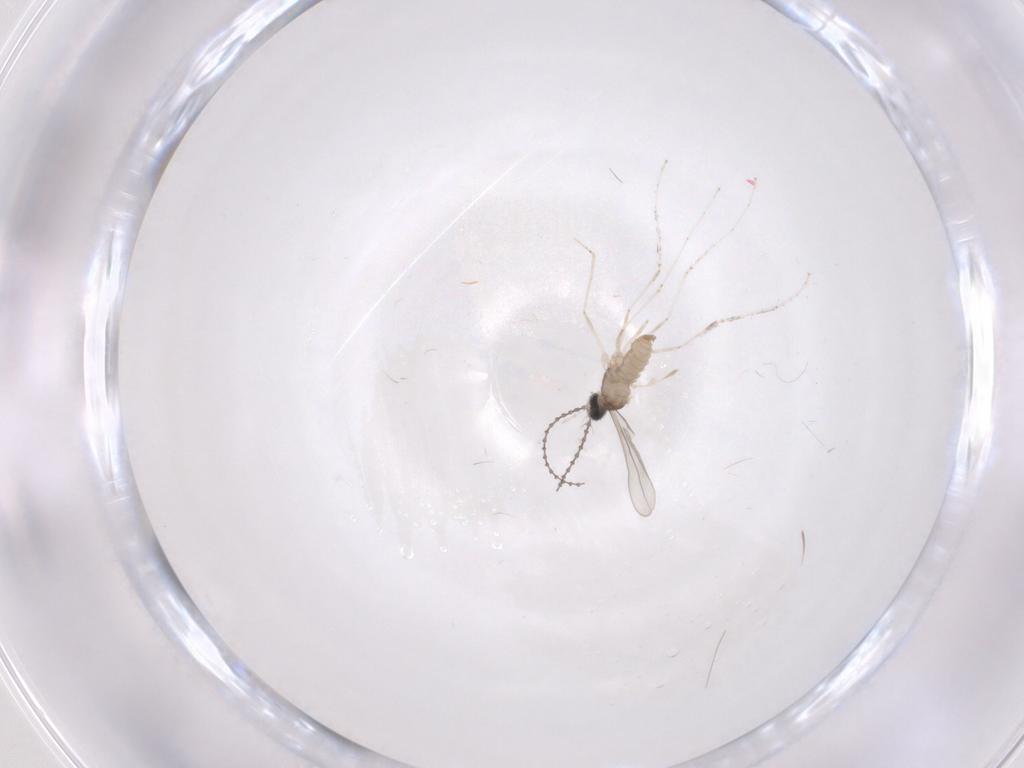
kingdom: Animalia
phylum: Arthropoda
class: Insecta
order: Diptera
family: Cecidomyiidae
